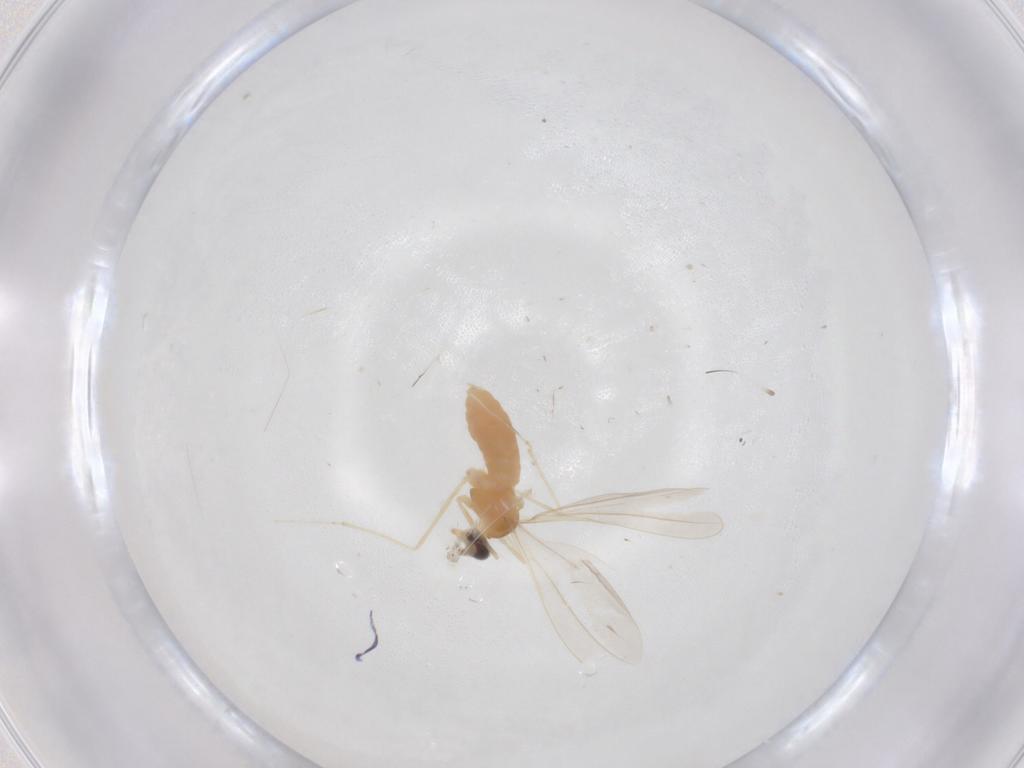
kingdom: Animalia
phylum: Arthropoda
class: Insecta
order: Diptera
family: Cecidomyiidae
